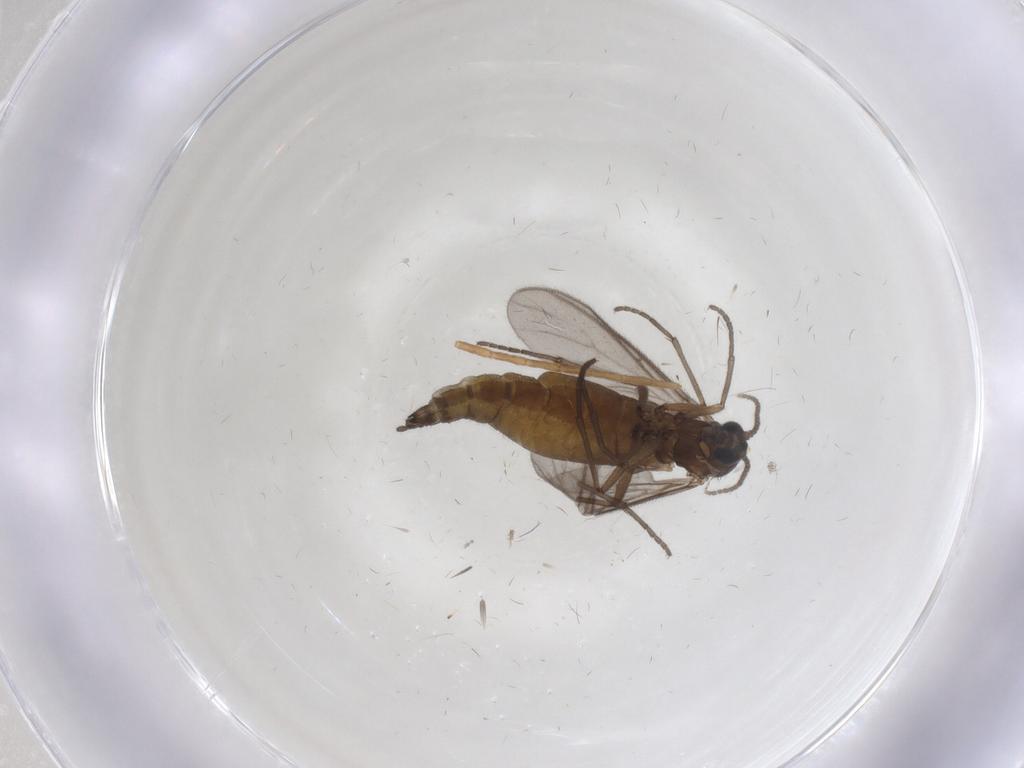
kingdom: Animalia
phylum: Arthropoda
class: Insecta
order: Diptera
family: Sciaridae
